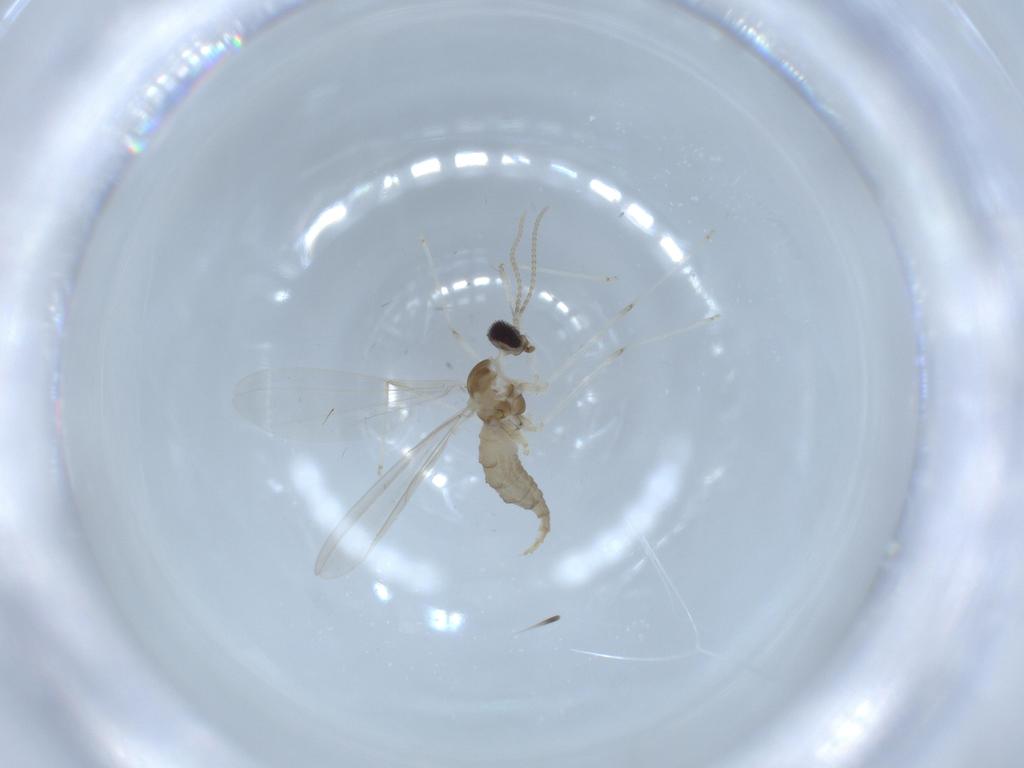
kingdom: Animalia
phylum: Arthropoda
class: Insecta
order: Diptera
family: Cecidomyiidae
